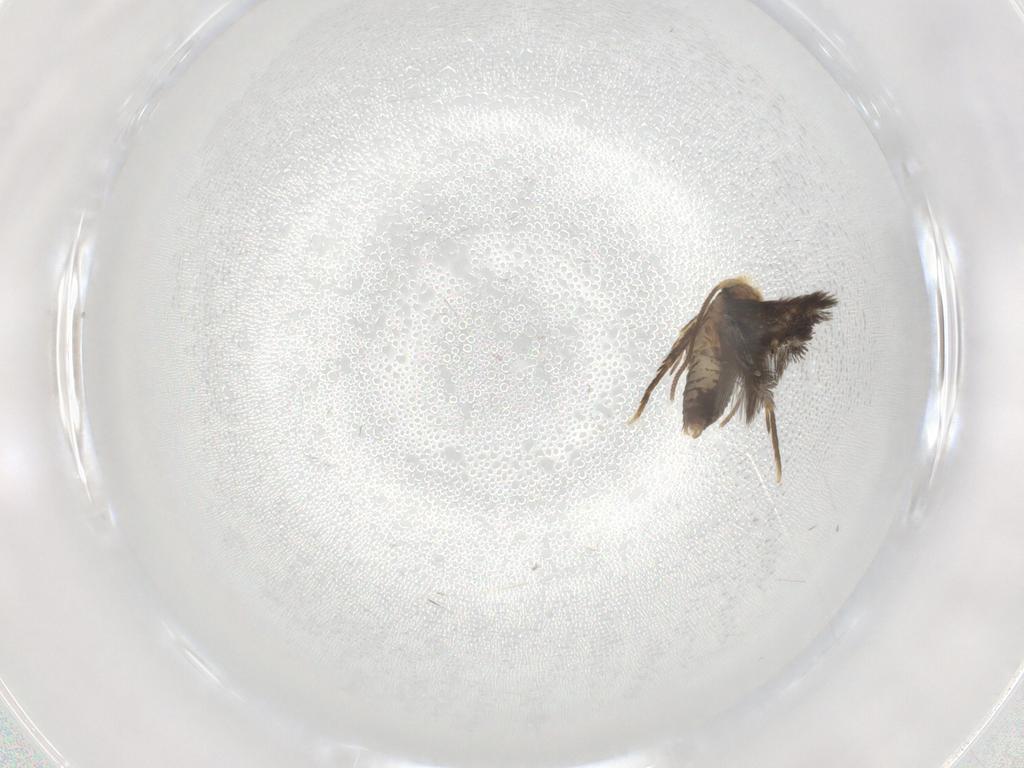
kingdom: Animalia
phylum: Arthropoda
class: Insecta
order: Lepidoptera
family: Nepticulidae
